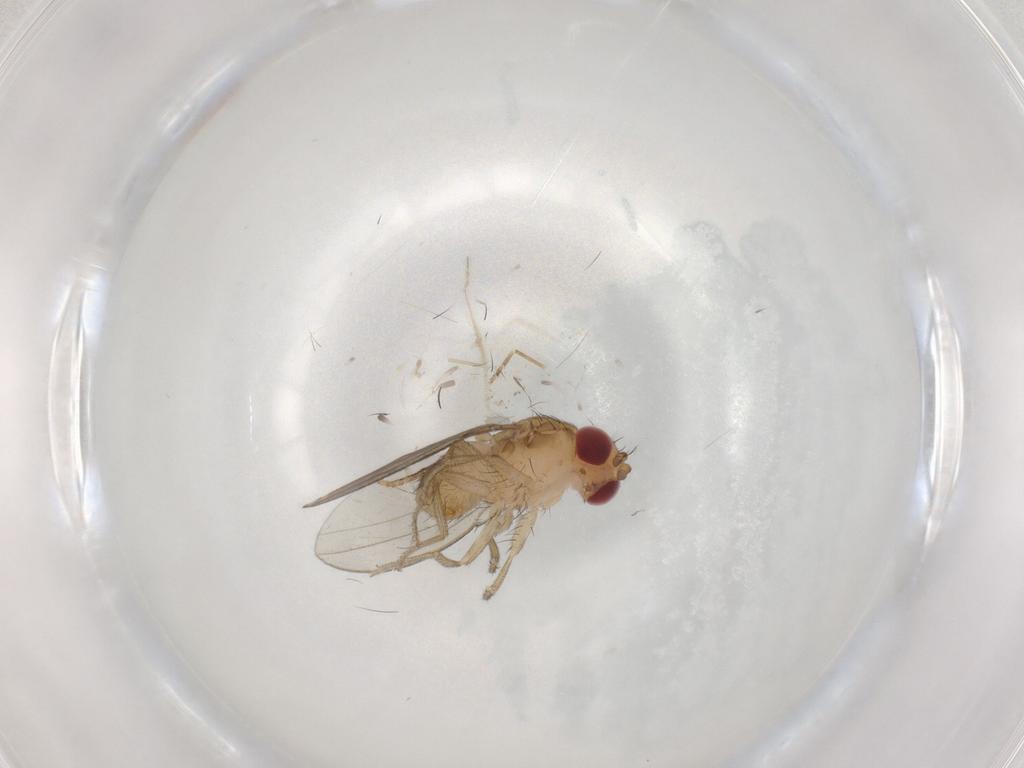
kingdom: Animalia
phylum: Arthropoda
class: Insecta
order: Diptera
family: Drosophilidae
